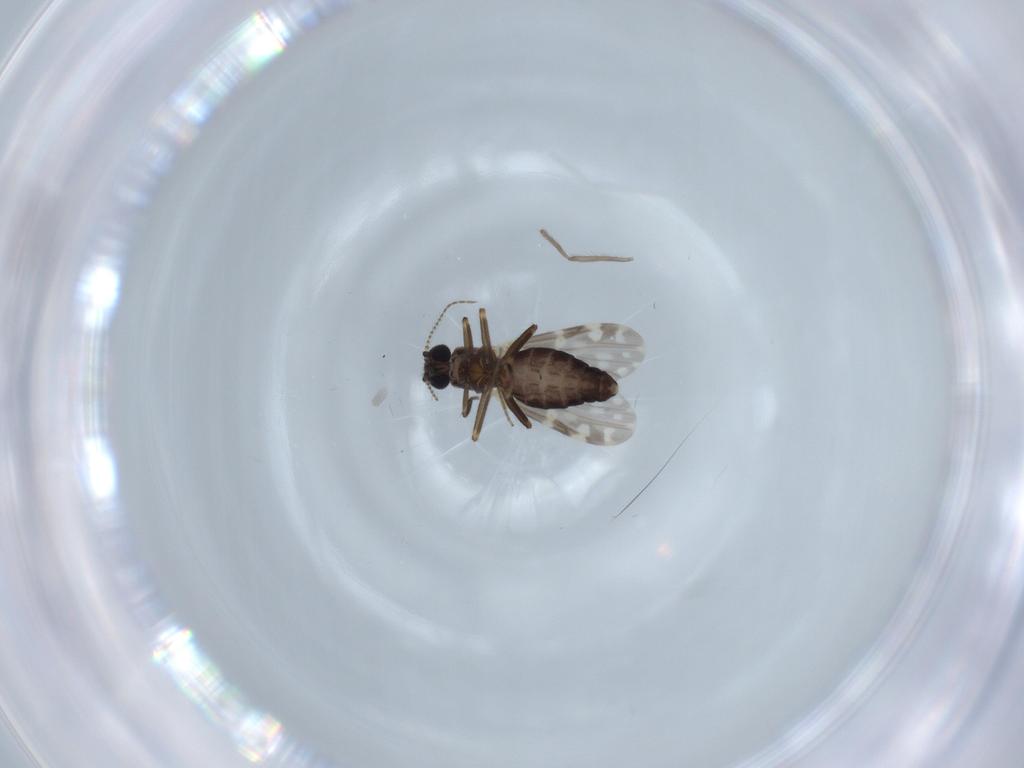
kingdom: Animalia
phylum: Arthropoda
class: Insecta
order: Diptera
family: Ceratopogonidae
